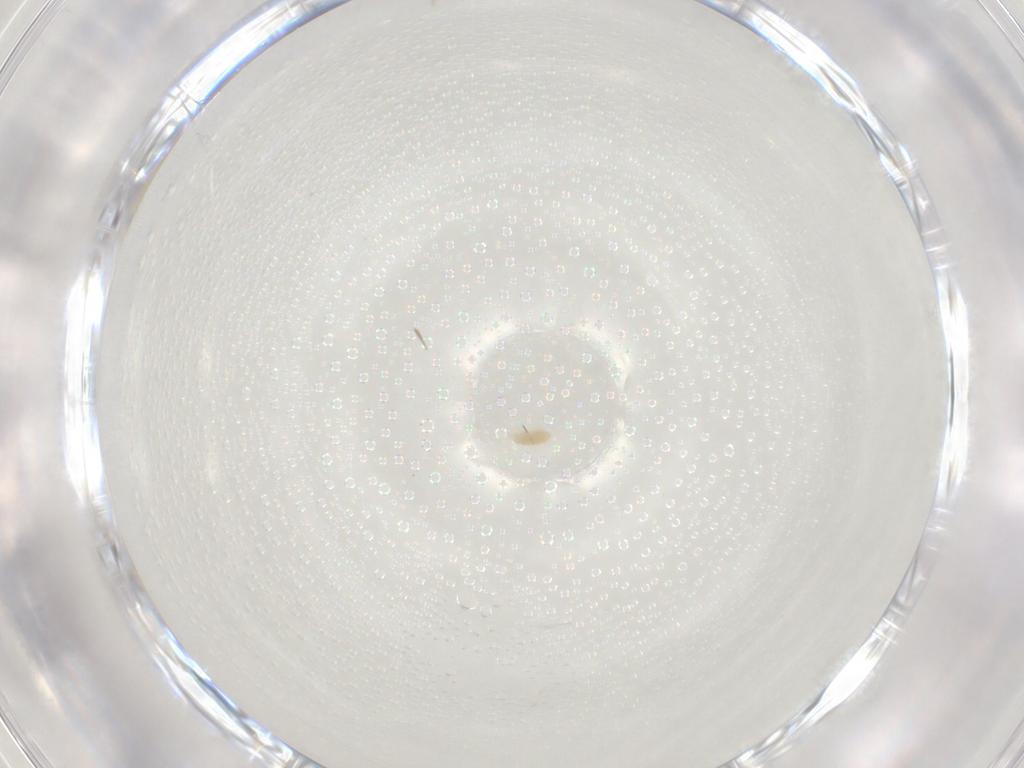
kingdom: Animalia
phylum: Arthropoda
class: Arachnida
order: Trombidiformes
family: Eupodidae
